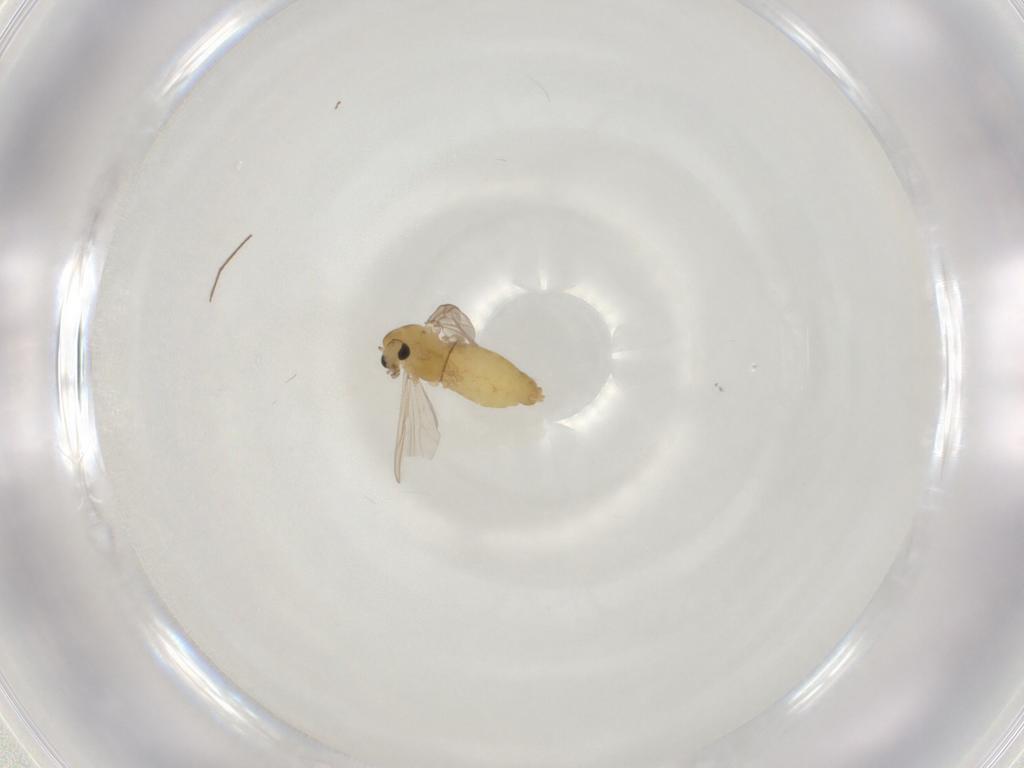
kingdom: Animalia
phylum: Arthropoda
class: Insecta
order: Diptera
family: Chironomidae
